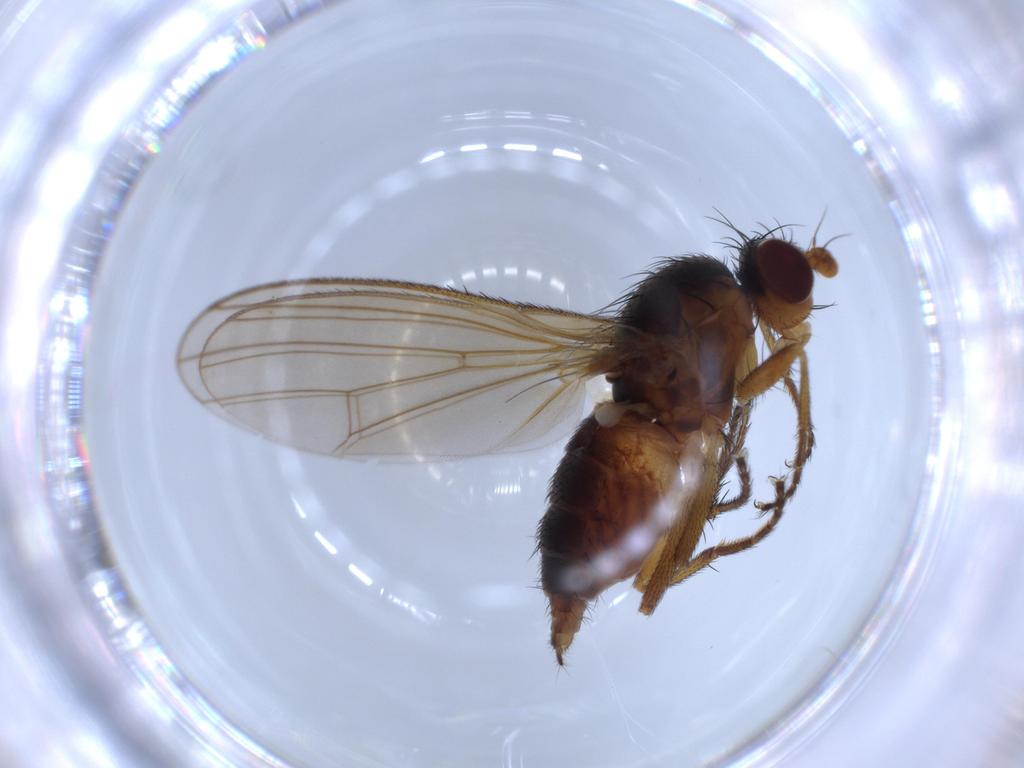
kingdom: Animalia
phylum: Arthropoda
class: Insecta
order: Diptera
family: Heleomyzidae
